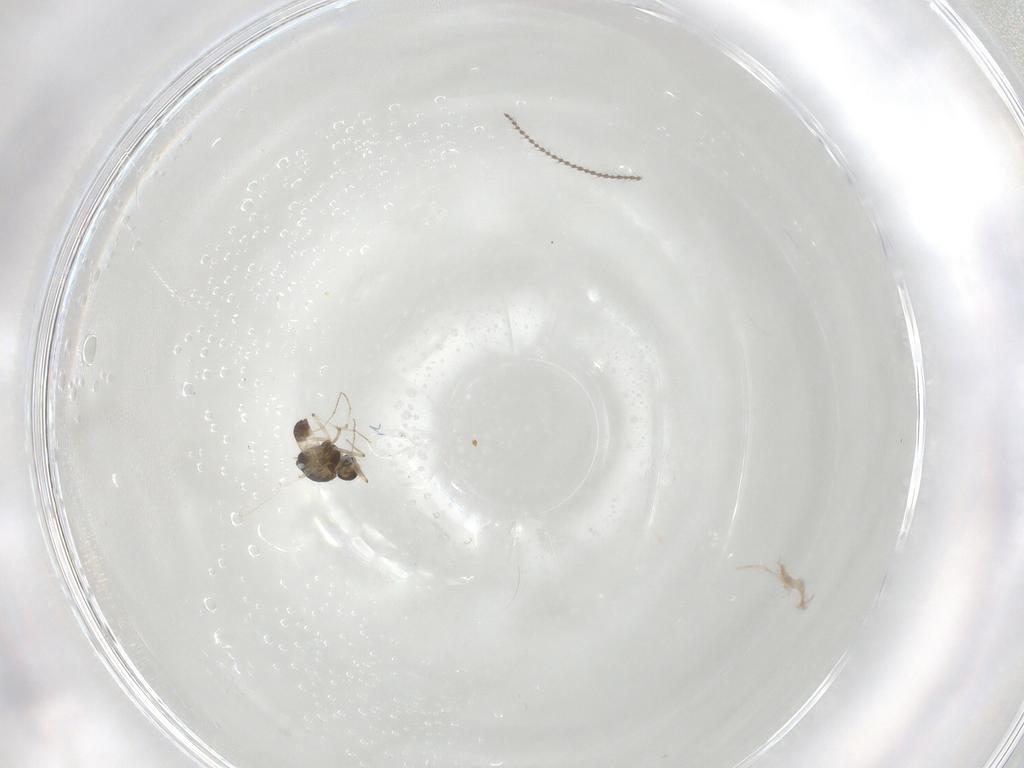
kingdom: Animalia
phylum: Arthropoda
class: Insecta
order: Diptera
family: Chironomidae
